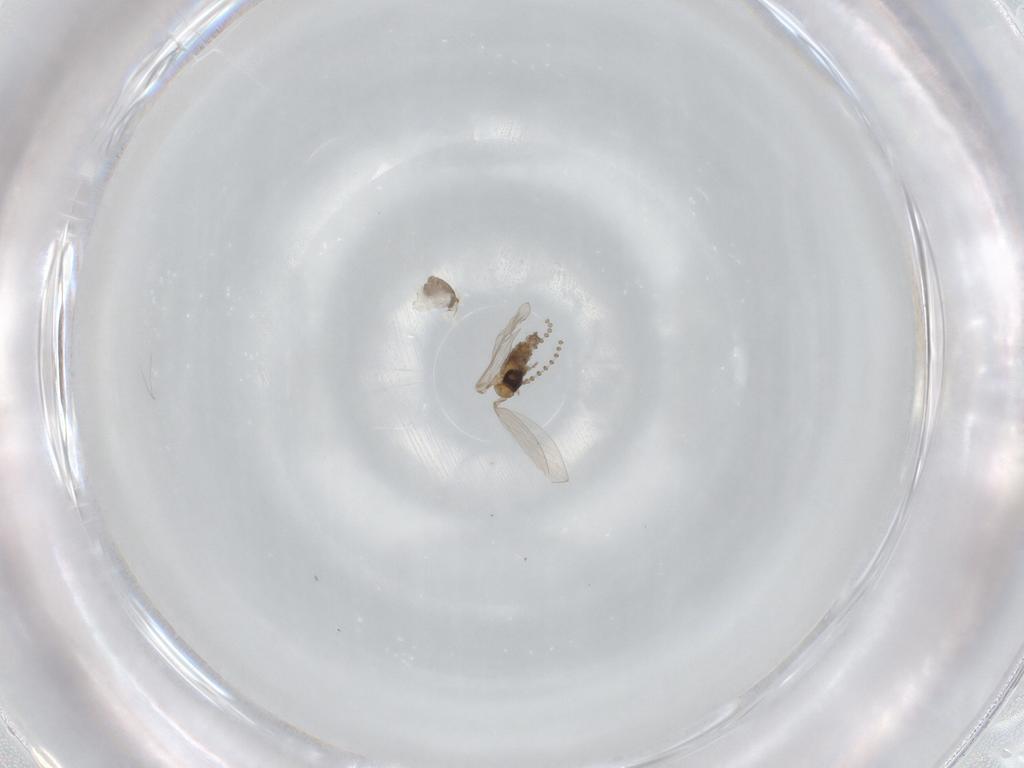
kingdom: Animalia
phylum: Arthropoda
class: Insecta
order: Diptera
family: Psychodidae
